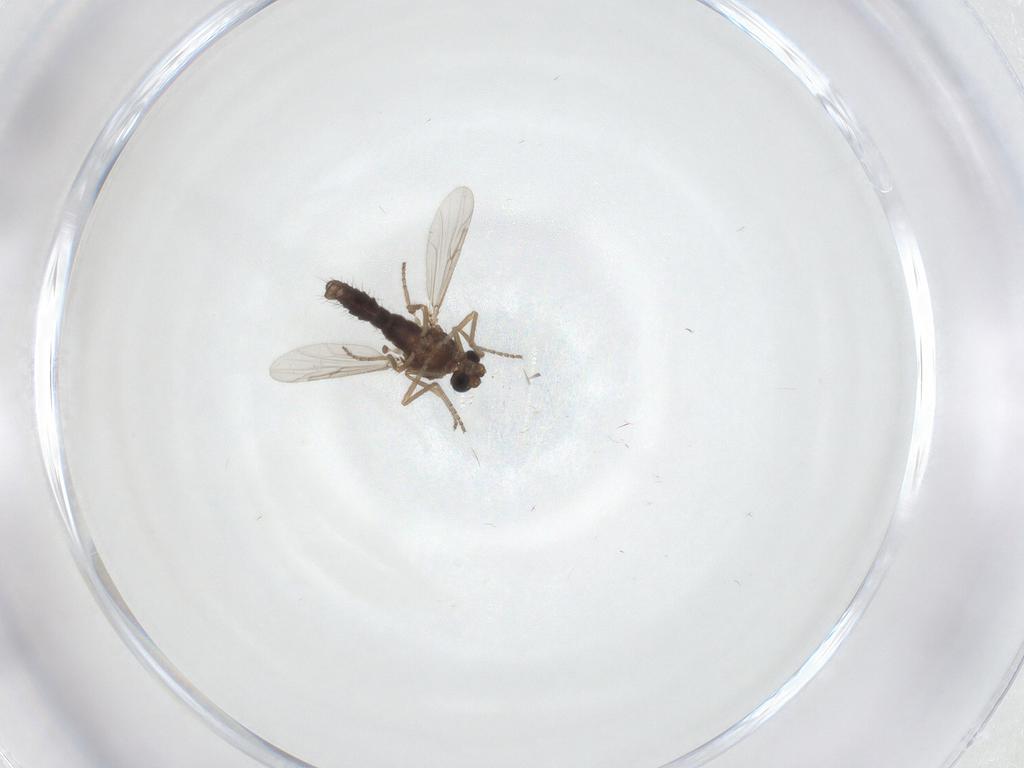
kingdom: Animalia
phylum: Arthropoda
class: Insecta
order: Diptera
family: Ceratopogonidae
